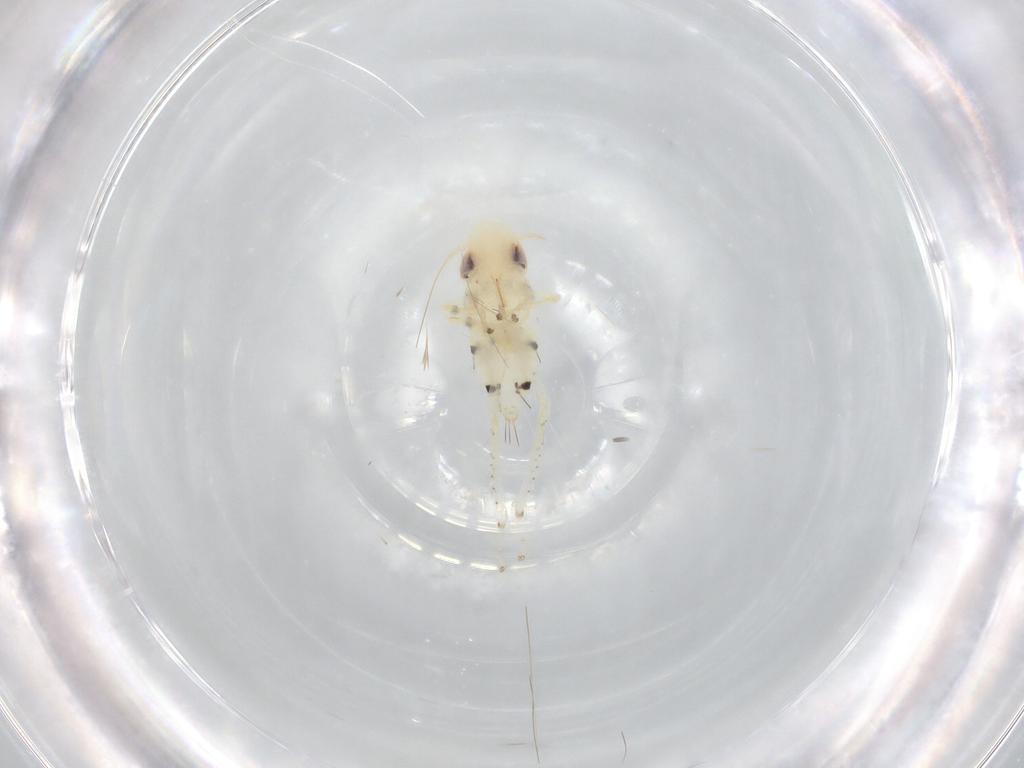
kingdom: Animalia
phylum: Arthropoda
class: Insecta
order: Hemiptera
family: Cicadellidae
